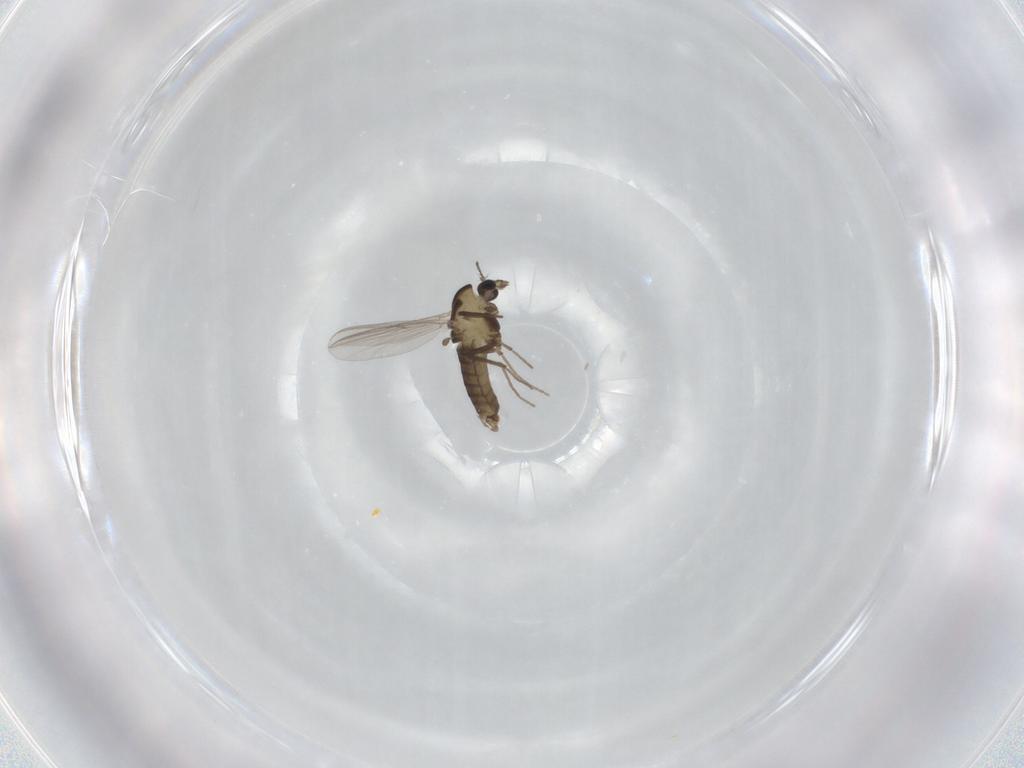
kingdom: Animalia
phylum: Arthropoda
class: Insecta
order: Diptera
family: Chironomidae
